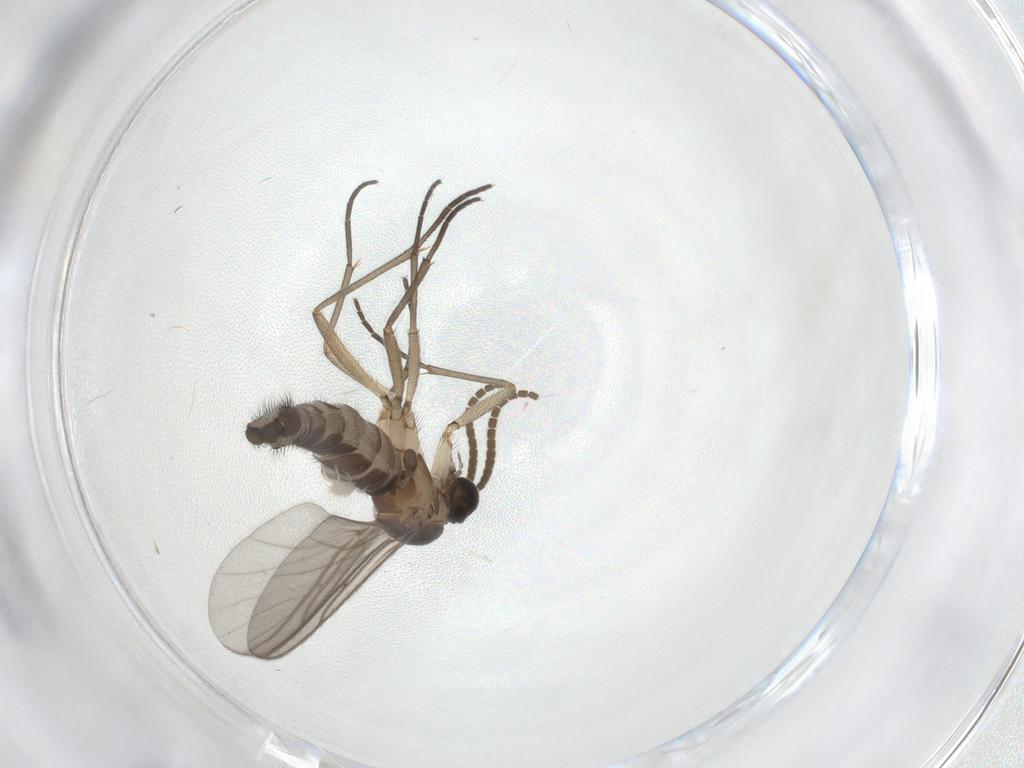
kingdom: Animalia
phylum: Arthropoda
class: Insecta
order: Diptera
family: Sciaridae
